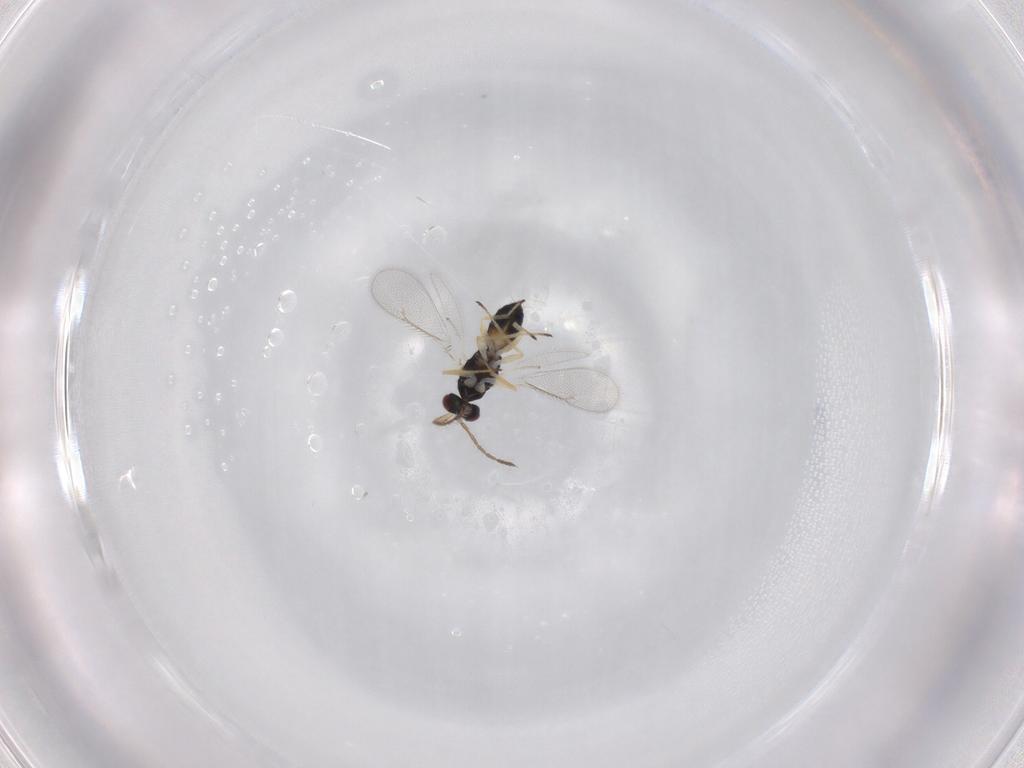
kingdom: Animalia
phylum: Arthropoda
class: Insecta
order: Hymenoptera
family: Eulophidae
